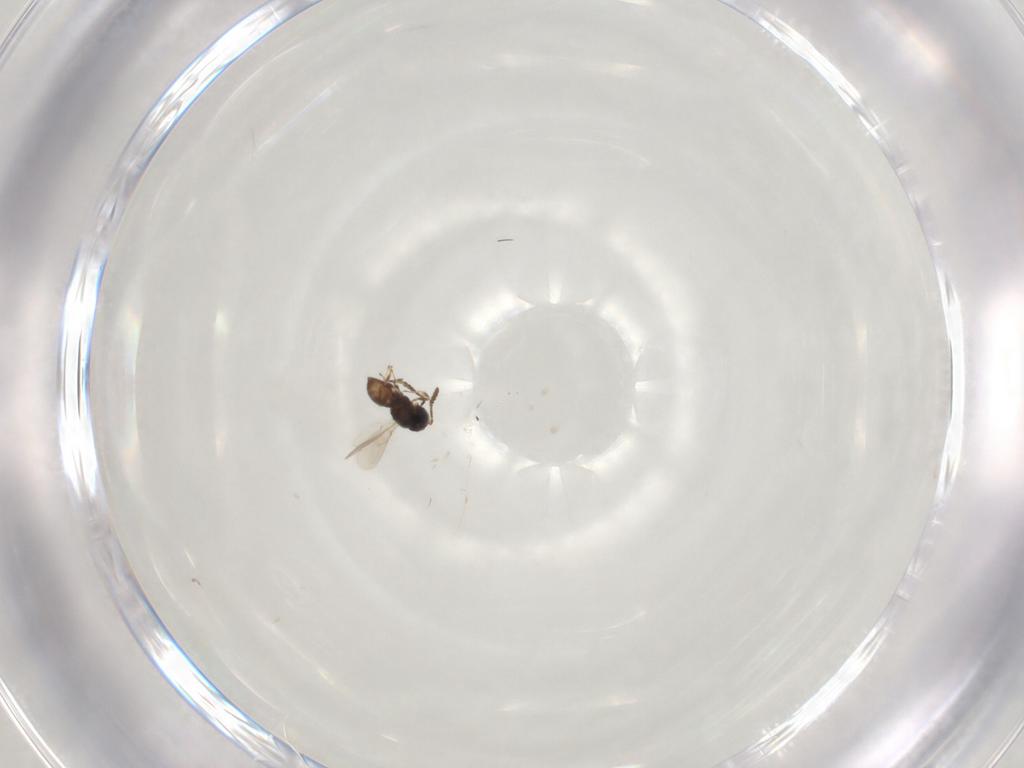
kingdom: Animalia
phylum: Arthropoda
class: Insecta
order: Hymenoptera
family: Scelionidae
